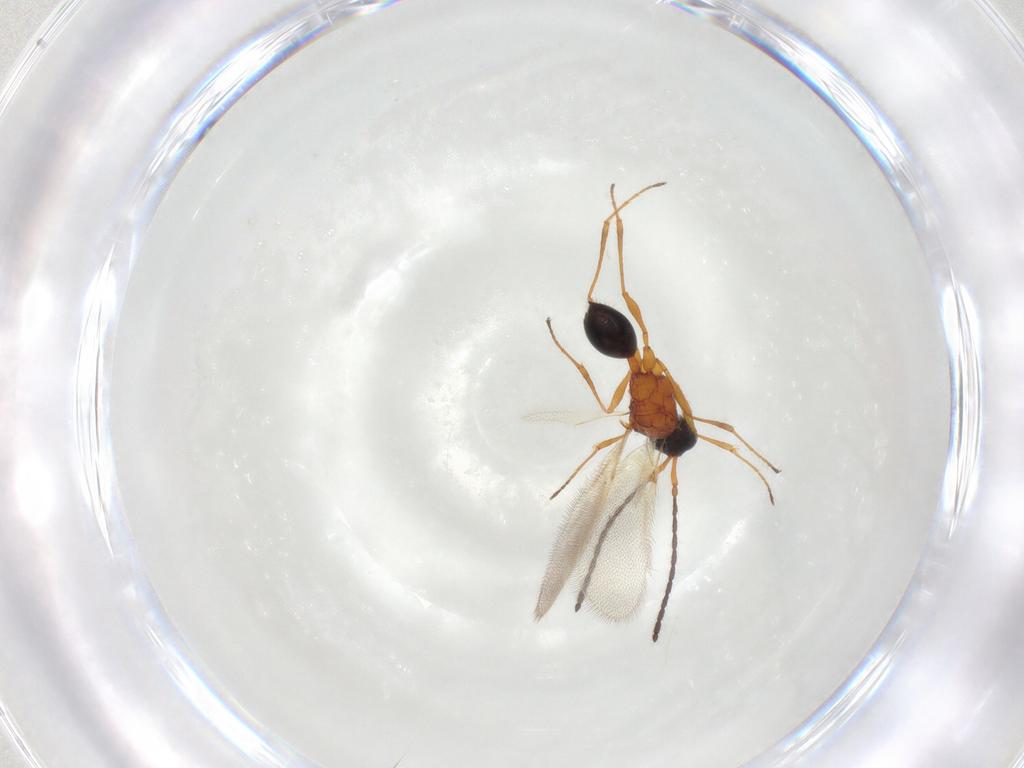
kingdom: Animalia
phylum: Arthropoda
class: Insecta
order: Hymenoptera
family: Diapriidae
